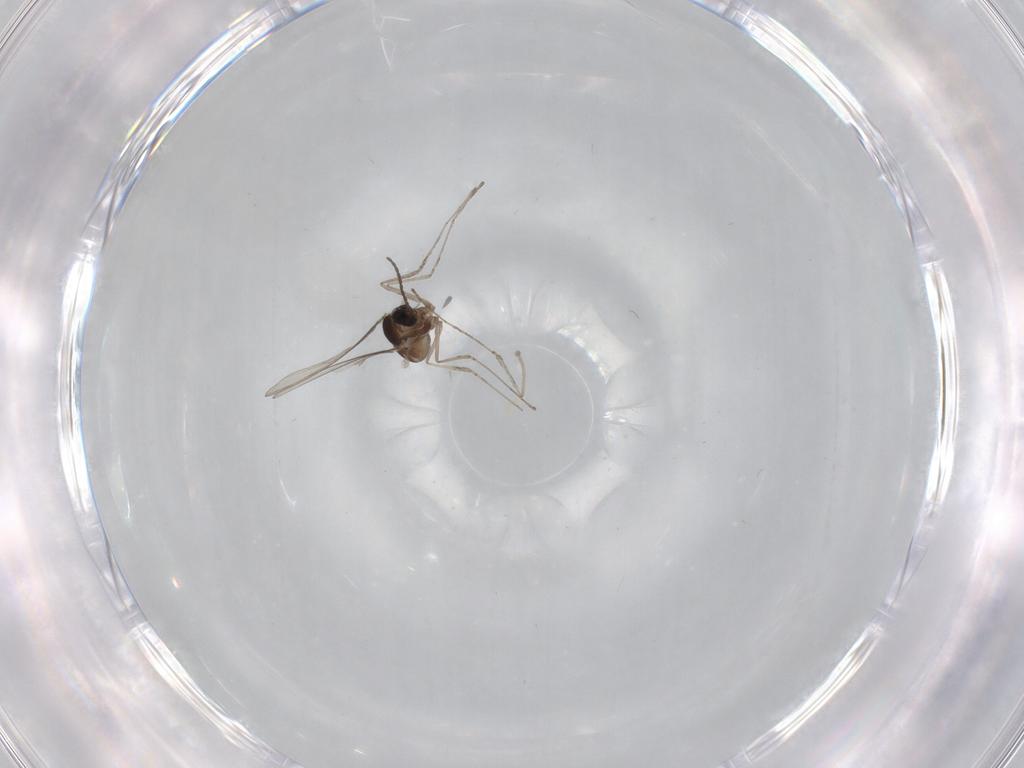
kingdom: Animalia
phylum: Arthropoda
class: Insecta
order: Diptera
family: Cecidomyiidae
